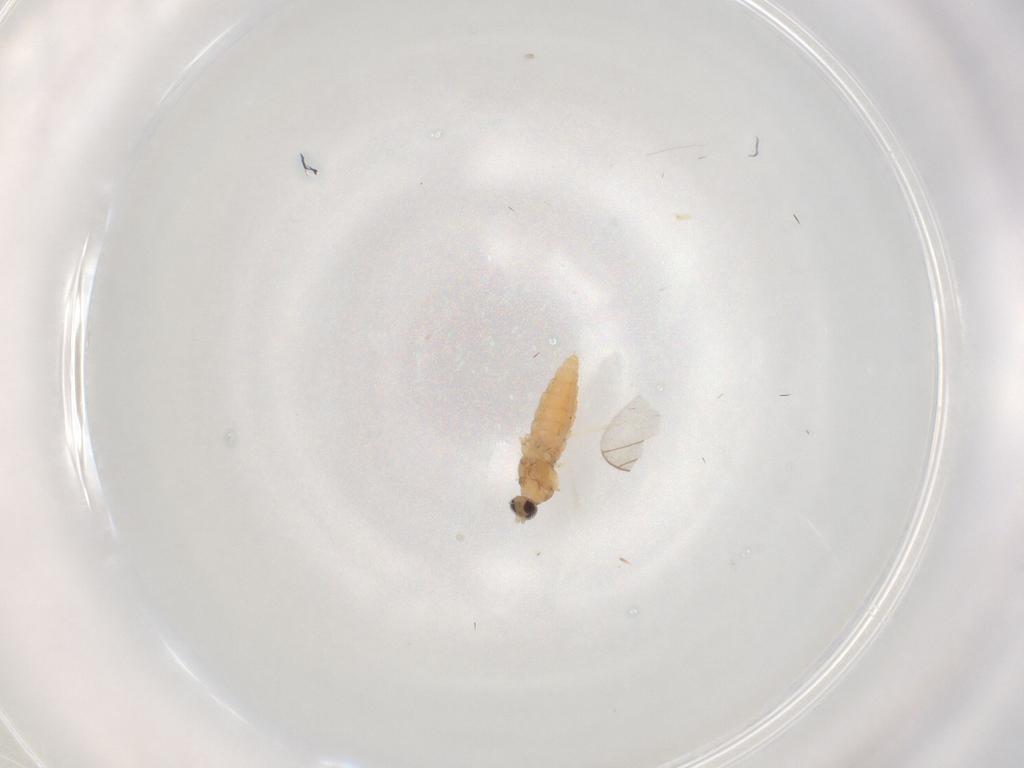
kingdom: Animalia
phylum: Arthropoda
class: Insecta
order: Diptera
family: Cecidomyiidae
